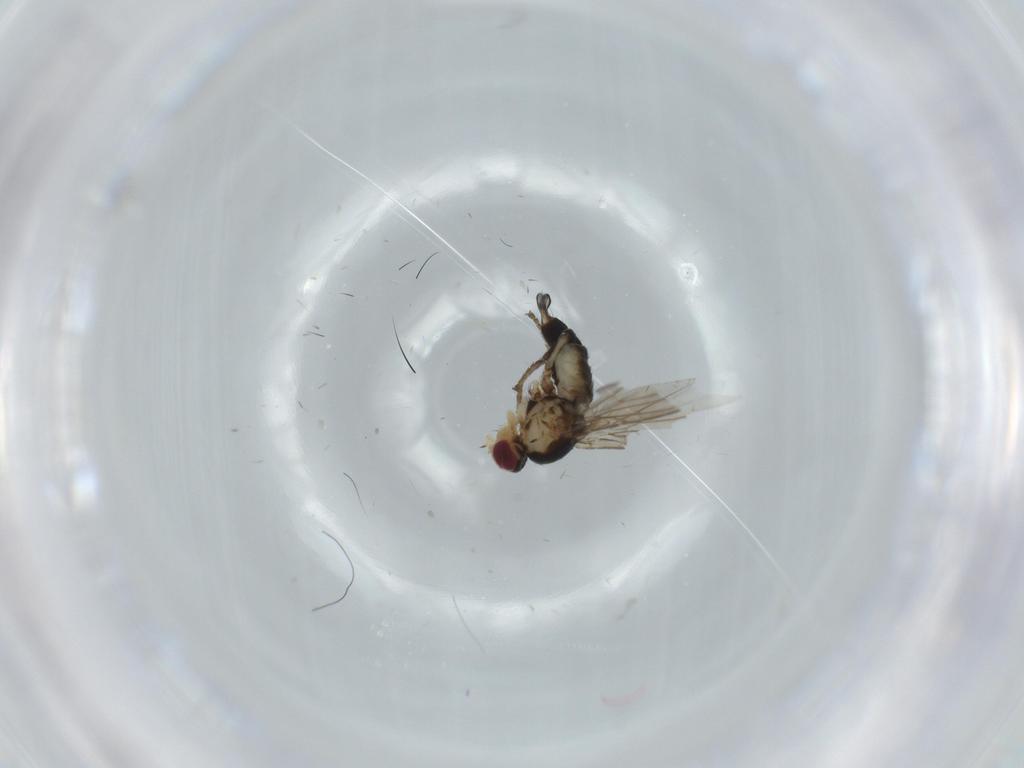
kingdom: Animalia
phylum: Arthropoda
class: Insecta
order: Diptera
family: Muscidae
